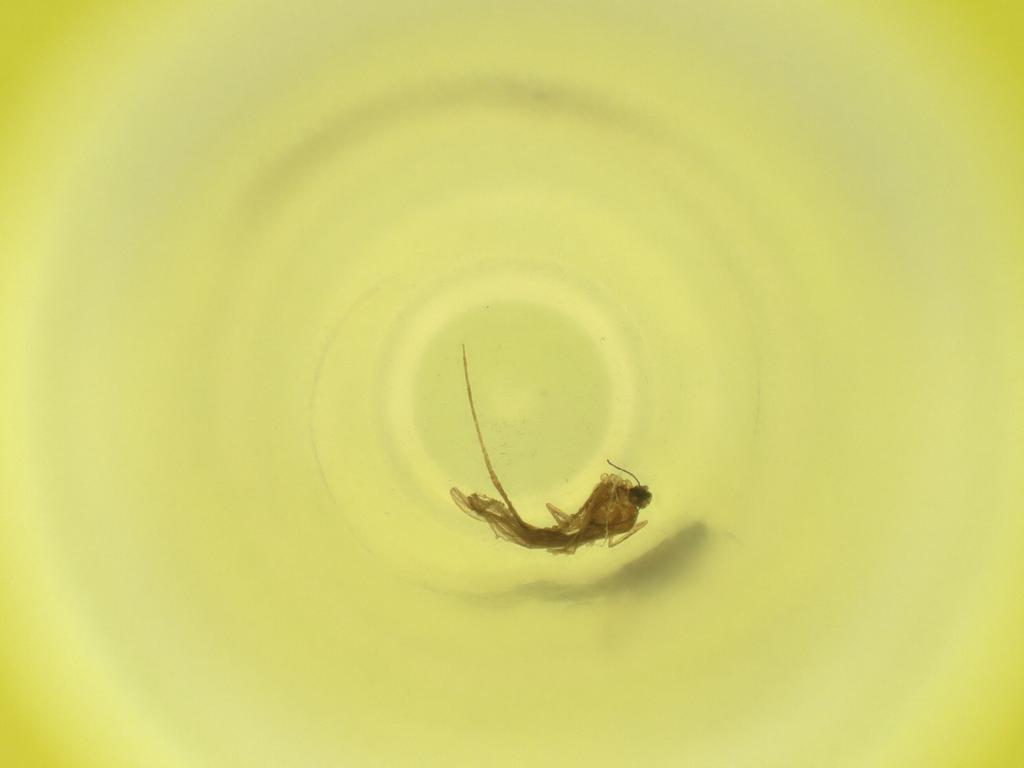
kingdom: Animalia
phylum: Arthropoda
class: Insecta
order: Diptera
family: Cecidomyiidae
